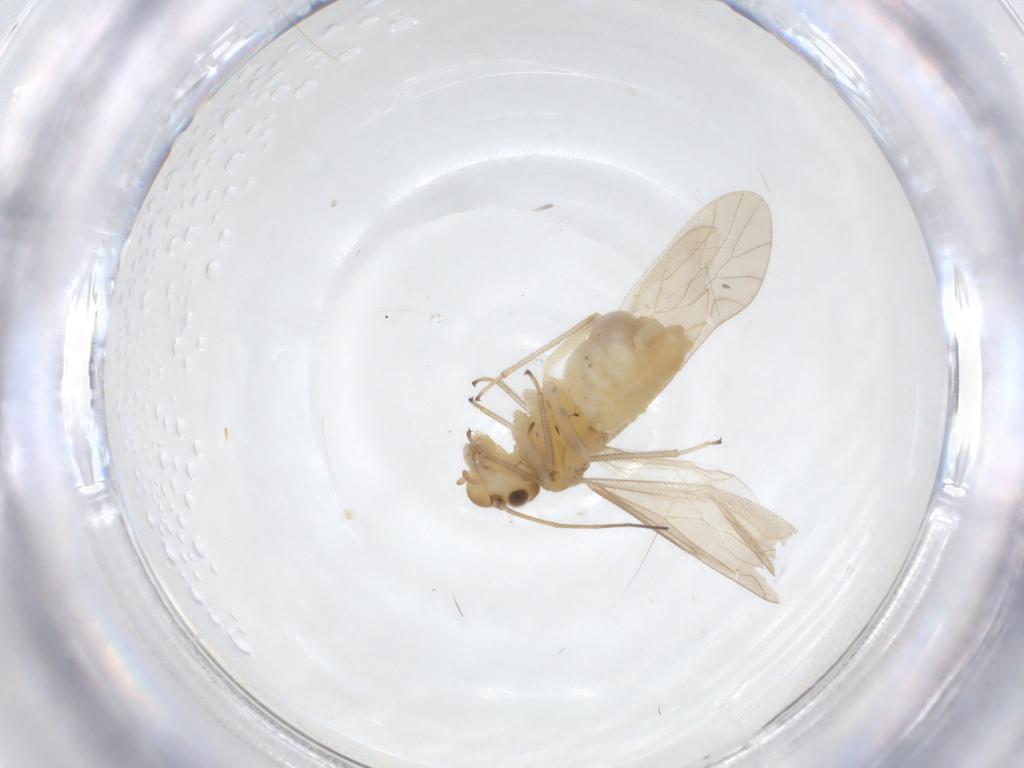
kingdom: Animalia
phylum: Arthropoda
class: Insecta
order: Psocodea
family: Caeciliusidae
